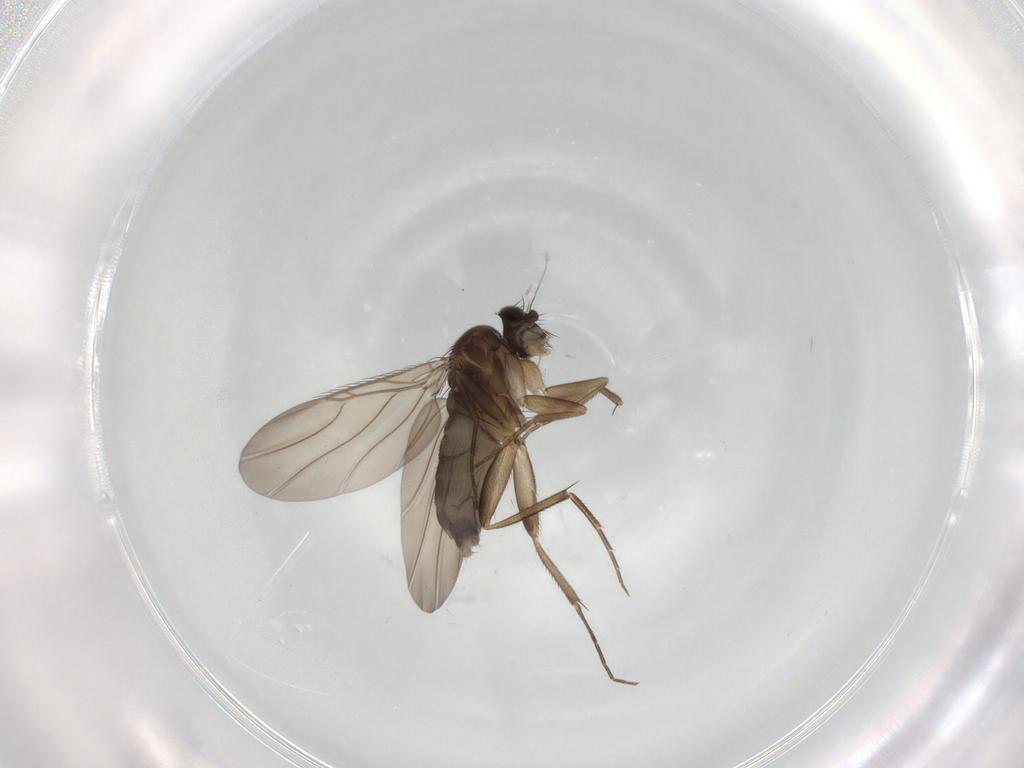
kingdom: Animalia
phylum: Arthropoda
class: Insecta
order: Diptera
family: Phoridae
